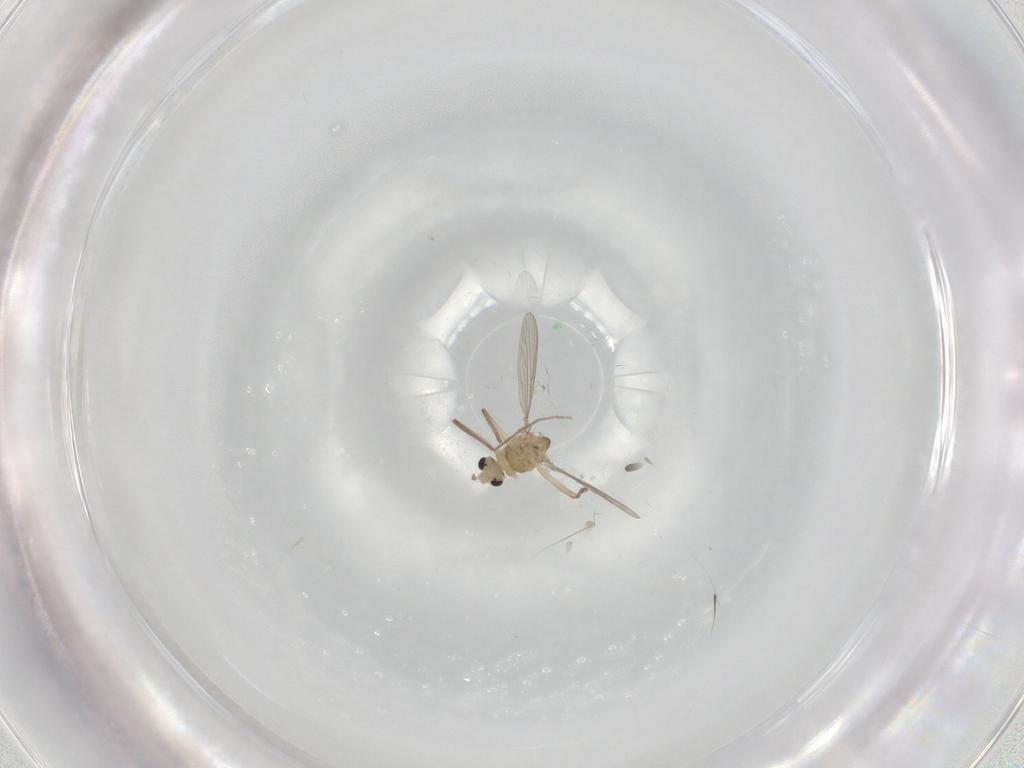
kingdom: Animalia
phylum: Arthropoda
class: Insecta
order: Diptera
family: Chironomidae
